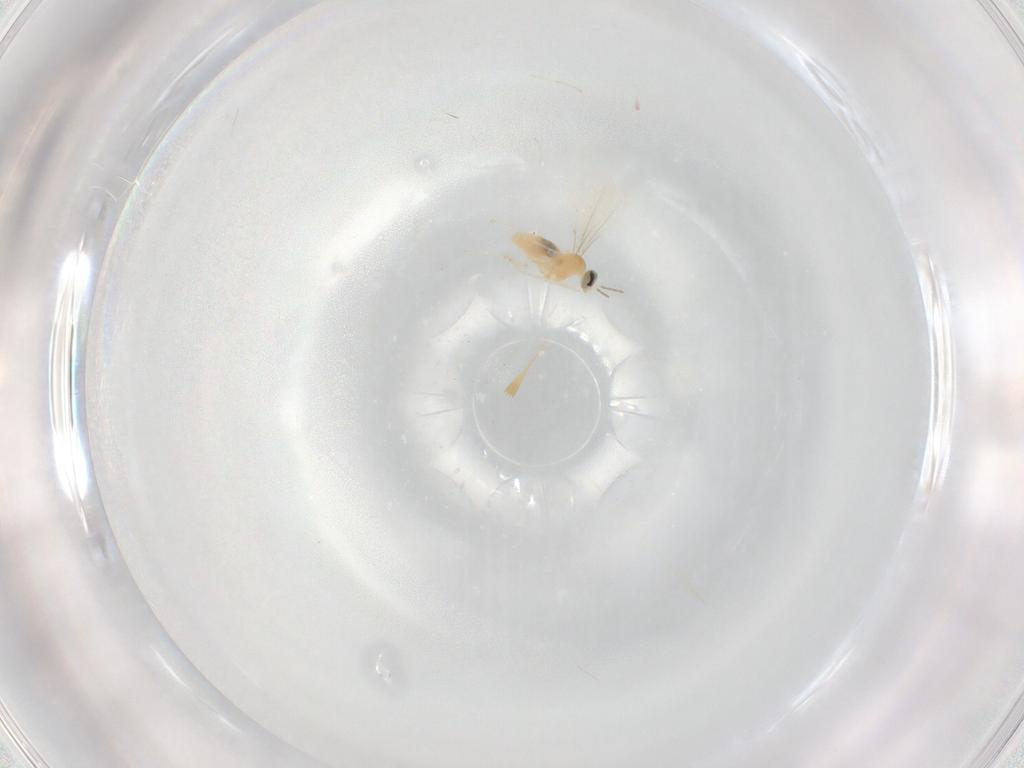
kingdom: Animalia
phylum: Arthropoda
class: Insecta
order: Diptera
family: Cecidomyiidae
